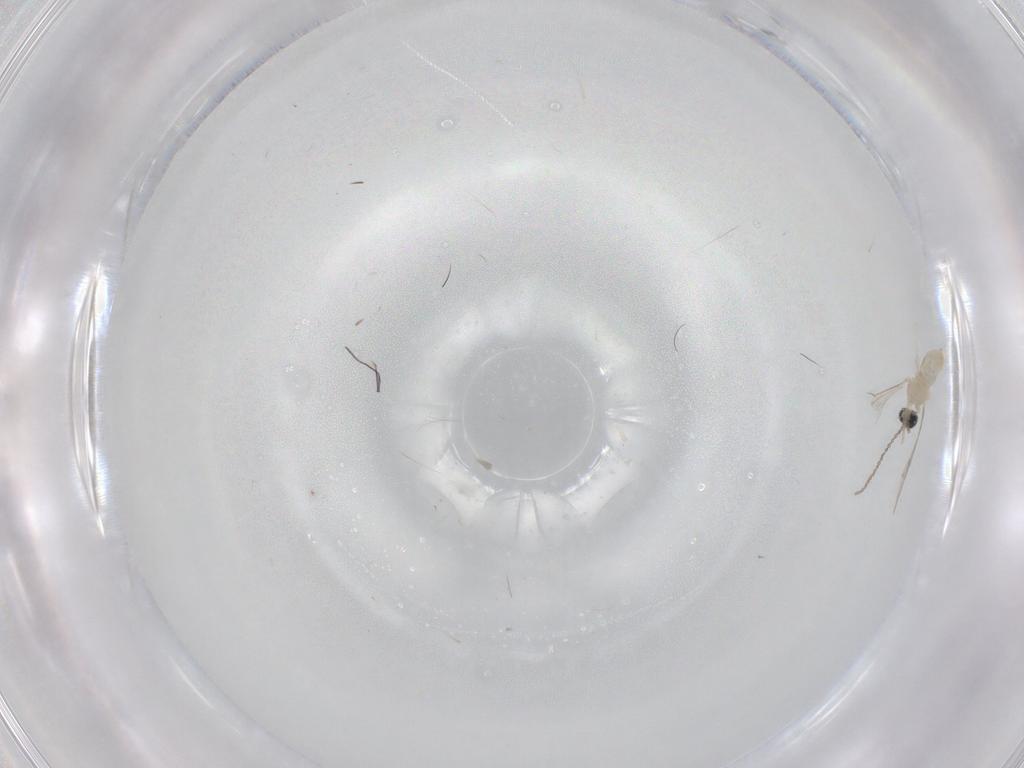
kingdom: Animalia
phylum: Arthropoda
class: Insecta
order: Diptera
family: Cecidomyiidae
